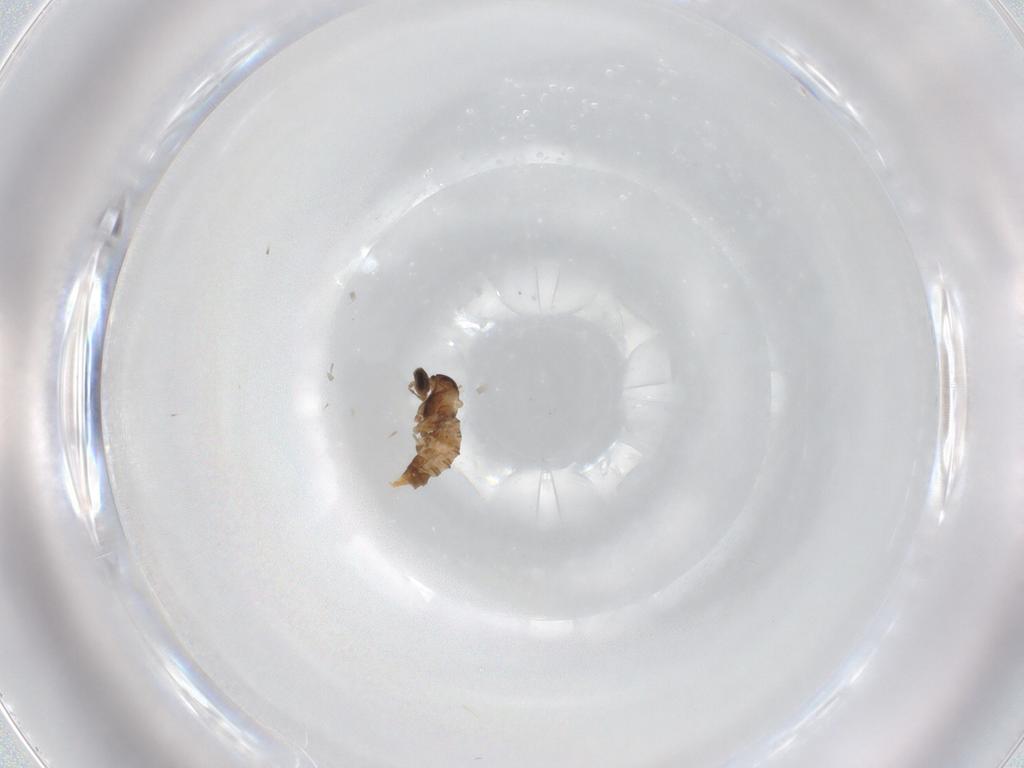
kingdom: Animalia
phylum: Arthropoda
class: Insecta
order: Diptera
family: Cecidomyiidae
